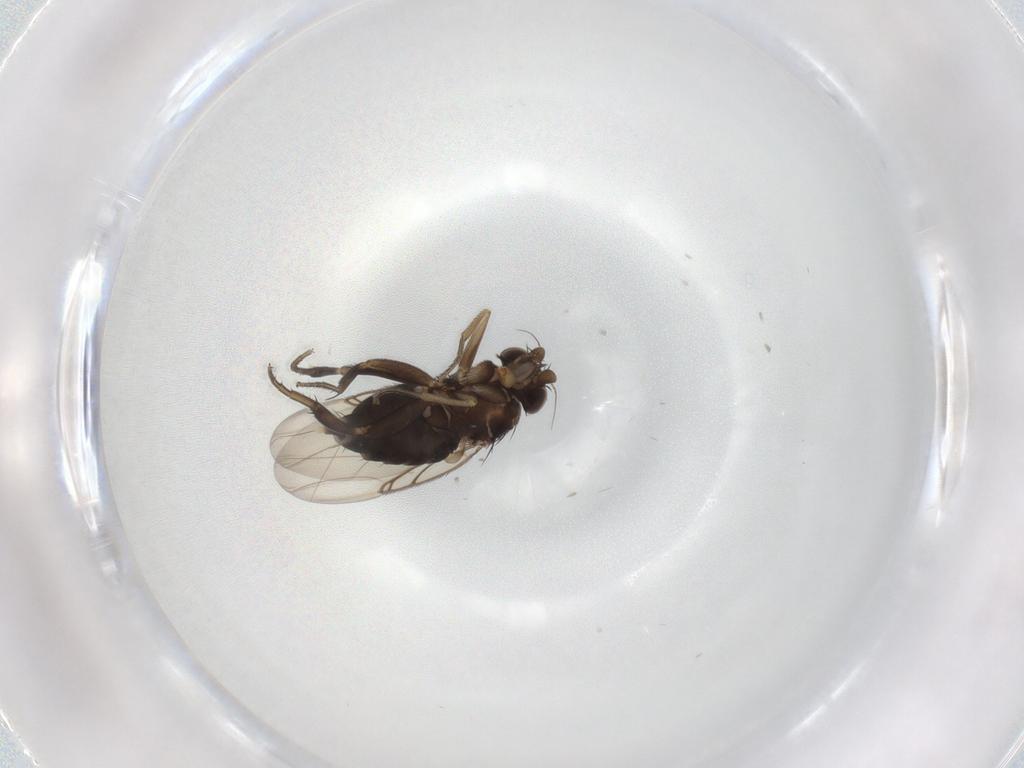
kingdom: Animalia
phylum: Arthropoda
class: Insecta
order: Diptera
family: Phoridae
